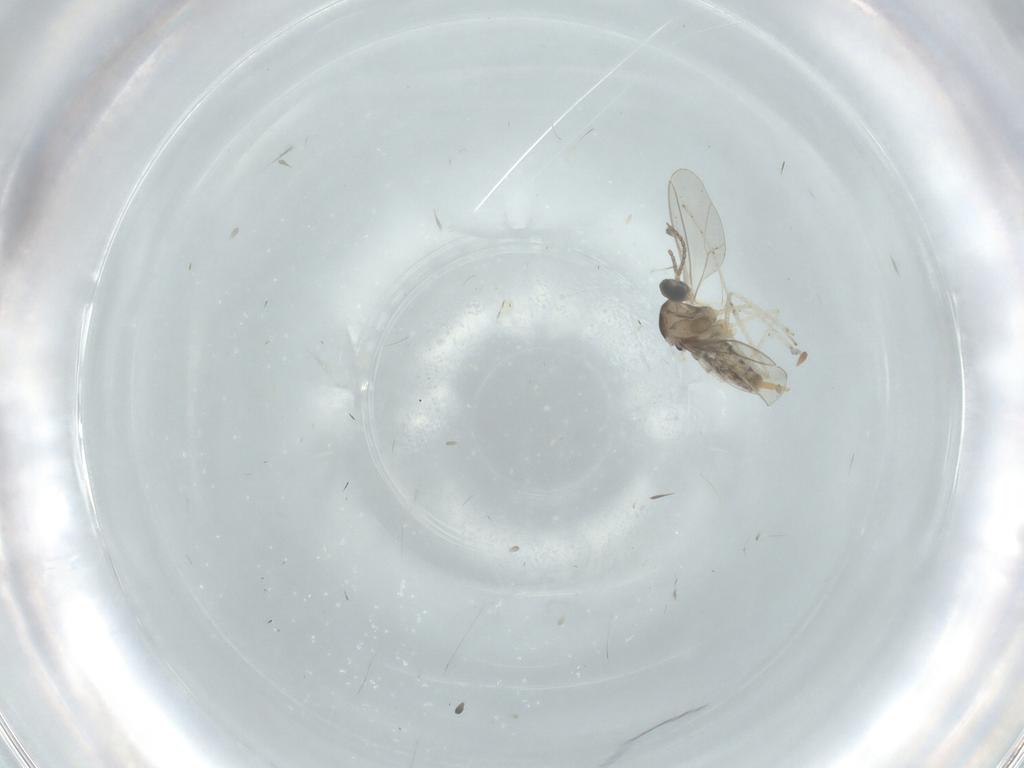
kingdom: Animalia
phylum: Arthropoda
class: Insecta
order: Diptera
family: Cecidomyiidae
